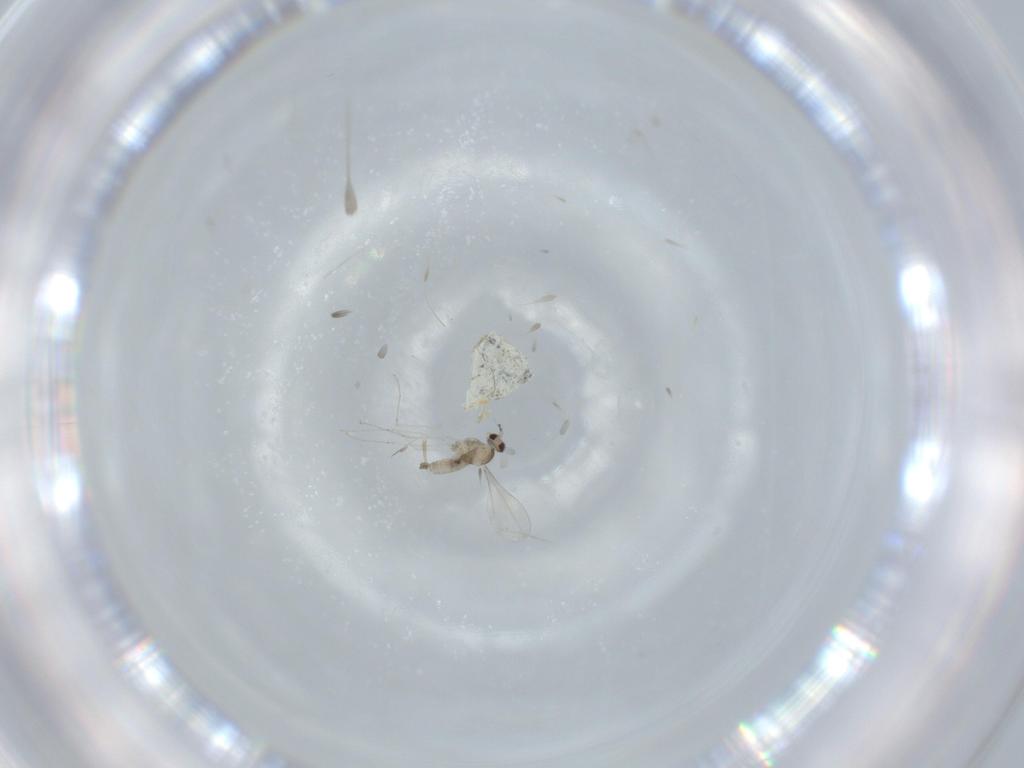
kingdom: Animalia
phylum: Arthropoda
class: Insecta
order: Diptera
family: Cecidomyiidae
